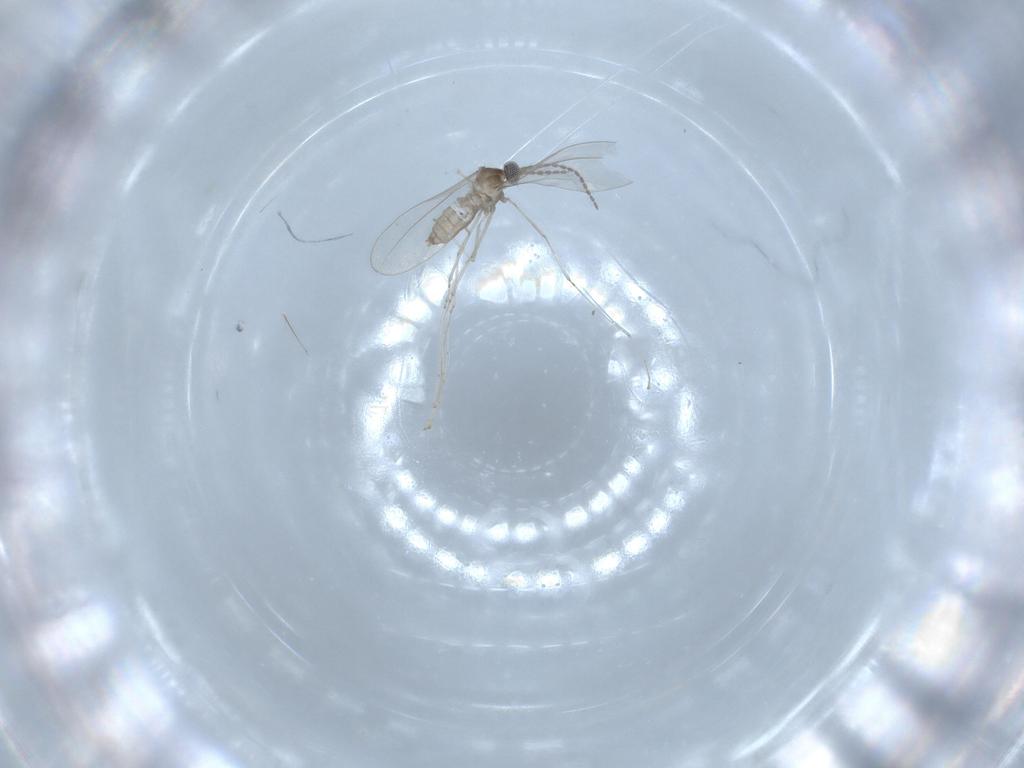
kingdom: Animalia
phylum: Arthropoda
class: Insecta
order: Diptera
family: Cecidomyiidae
